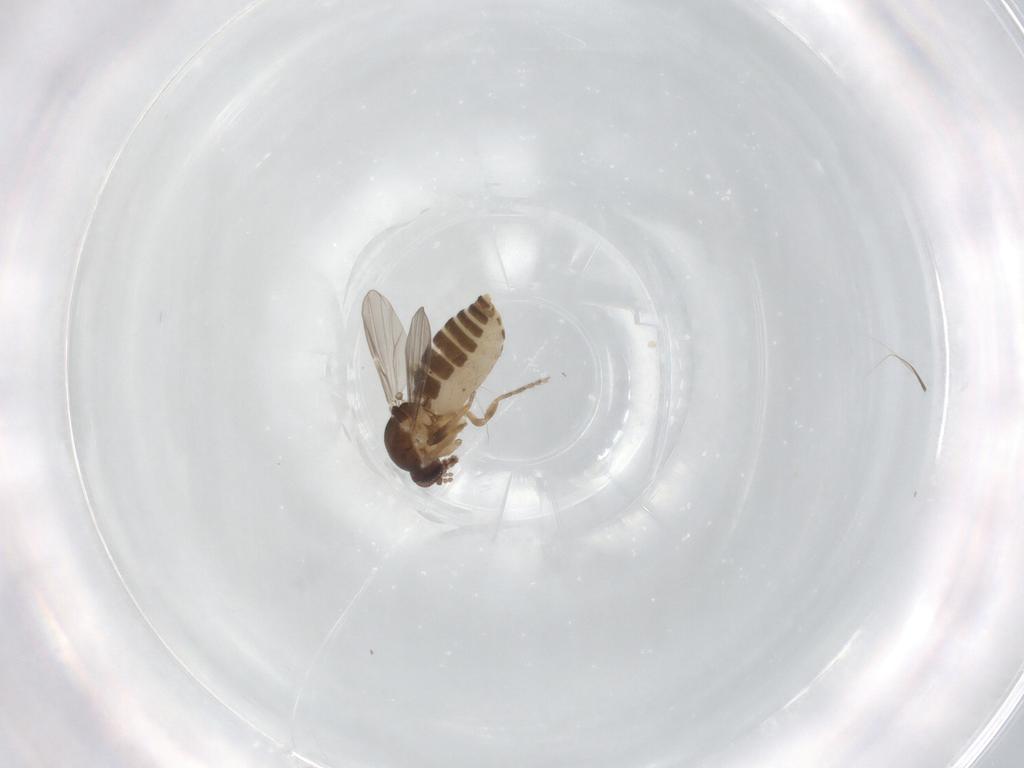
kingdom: Animalia
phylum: Arthropoda
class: Insecta
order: Diptera
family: Ceratopogonidae
